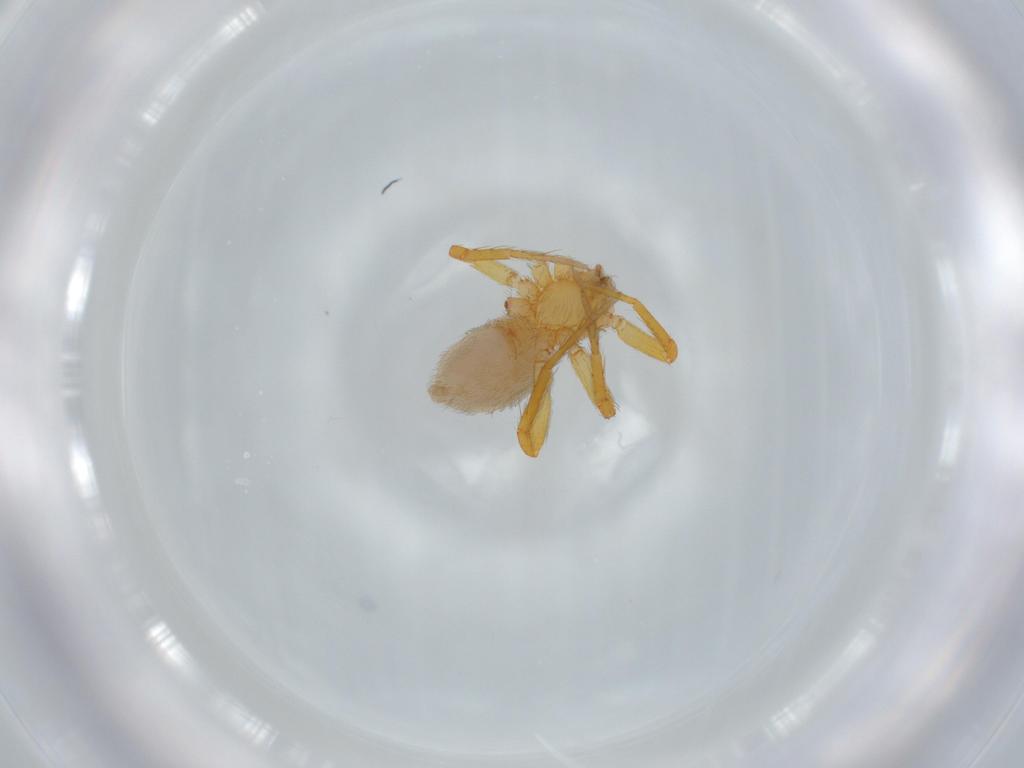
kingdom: Animalia
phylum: Arthropoda
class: Arachnida
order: Araneae
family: Oonopidae
